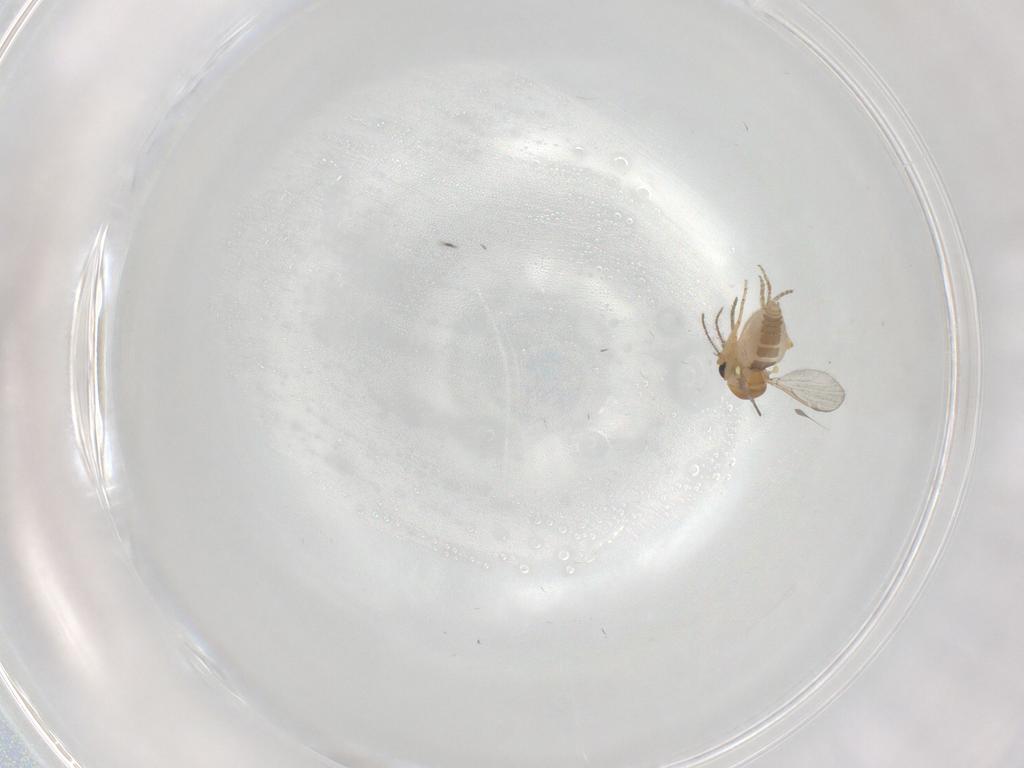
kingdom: Animalia
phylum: Arthropoda
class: Insecta
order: Diptera
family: Ceratopogonidae
